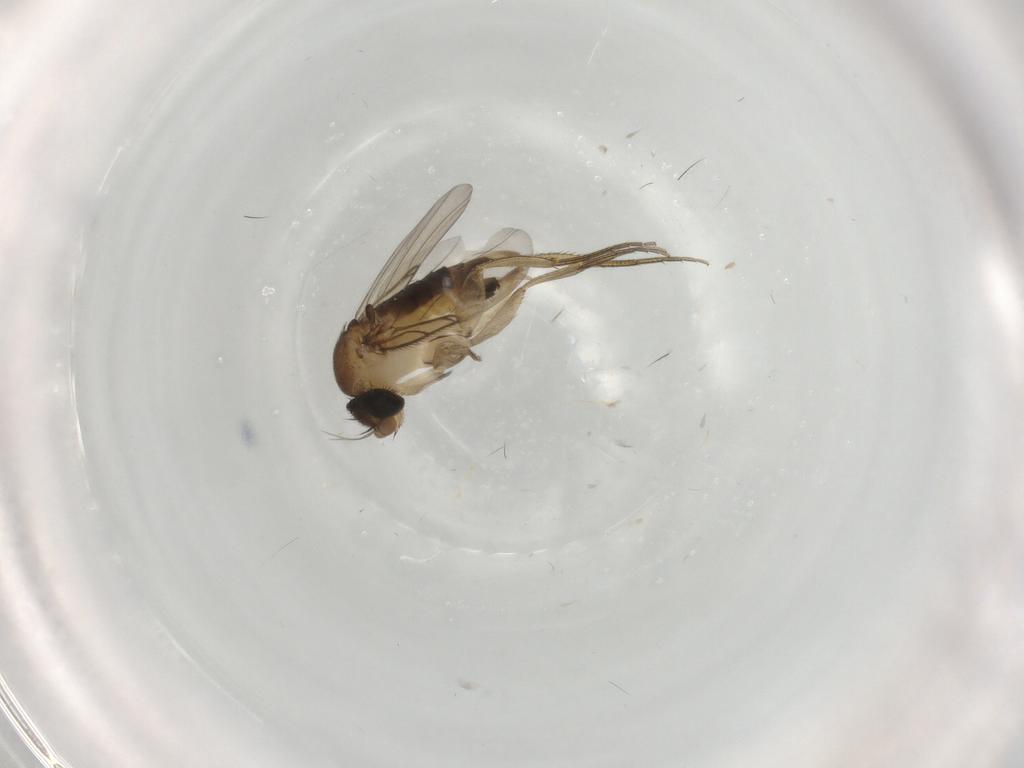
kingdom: Animalia
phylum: Arthropoda
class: Insecta
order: Diptera
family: Phoridae
